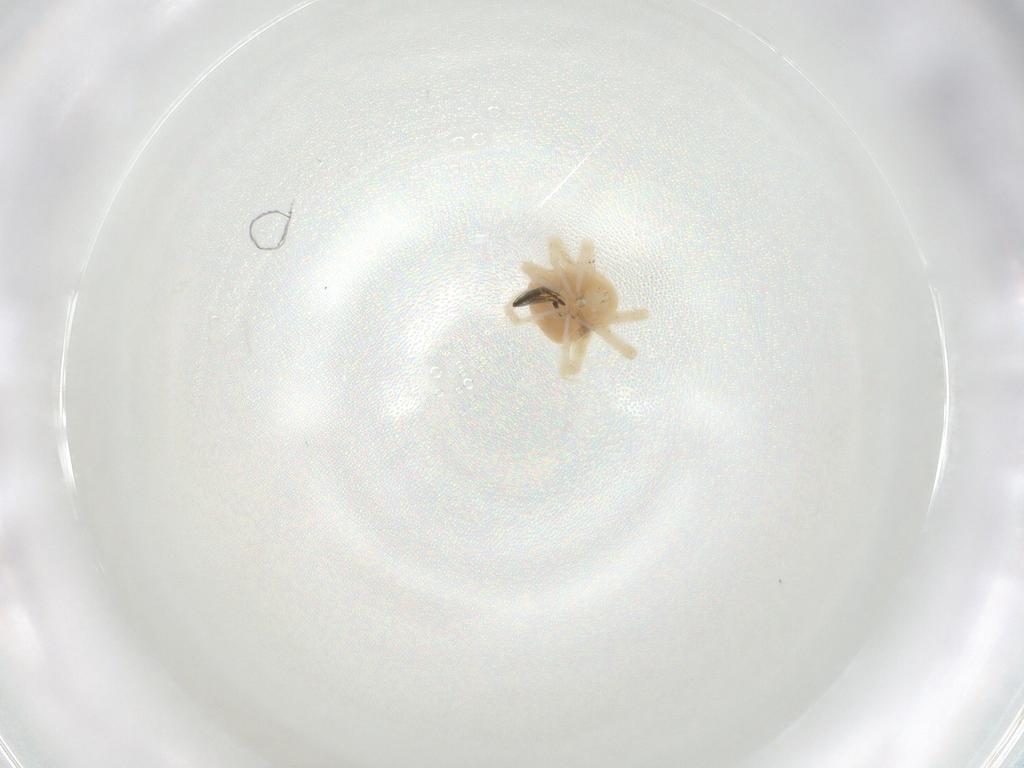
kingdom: Animalia
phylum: Arthropoda
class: Arachnida
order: Trombidiformes
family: Anystidae
